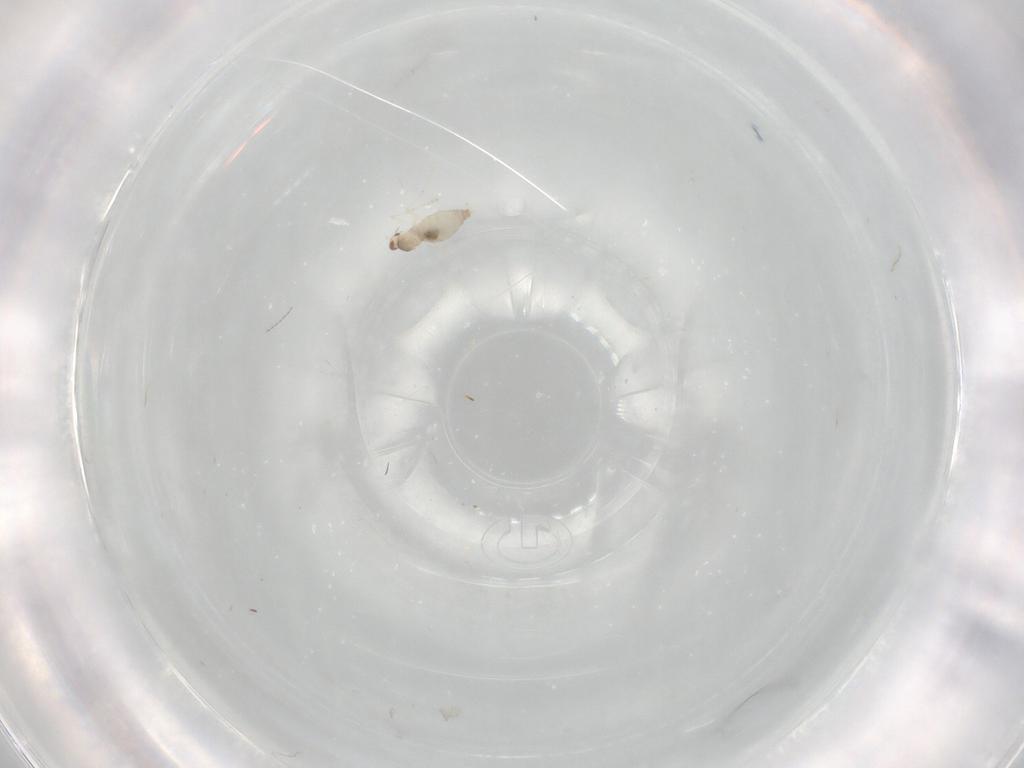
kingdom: Animalia
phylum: Arthropoda
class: Insecta
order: Diptera
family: Cecidomyiidae
